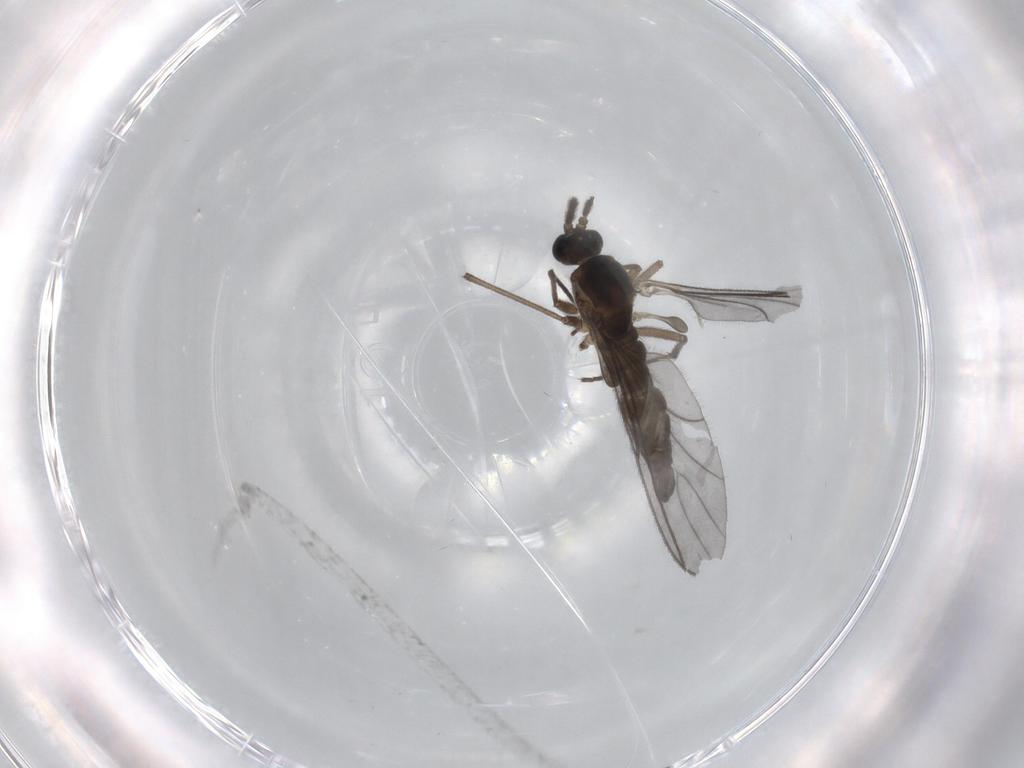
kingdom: Animalia
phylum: Arthropoda
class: Insecta
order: Diptera
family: Sciaridae
